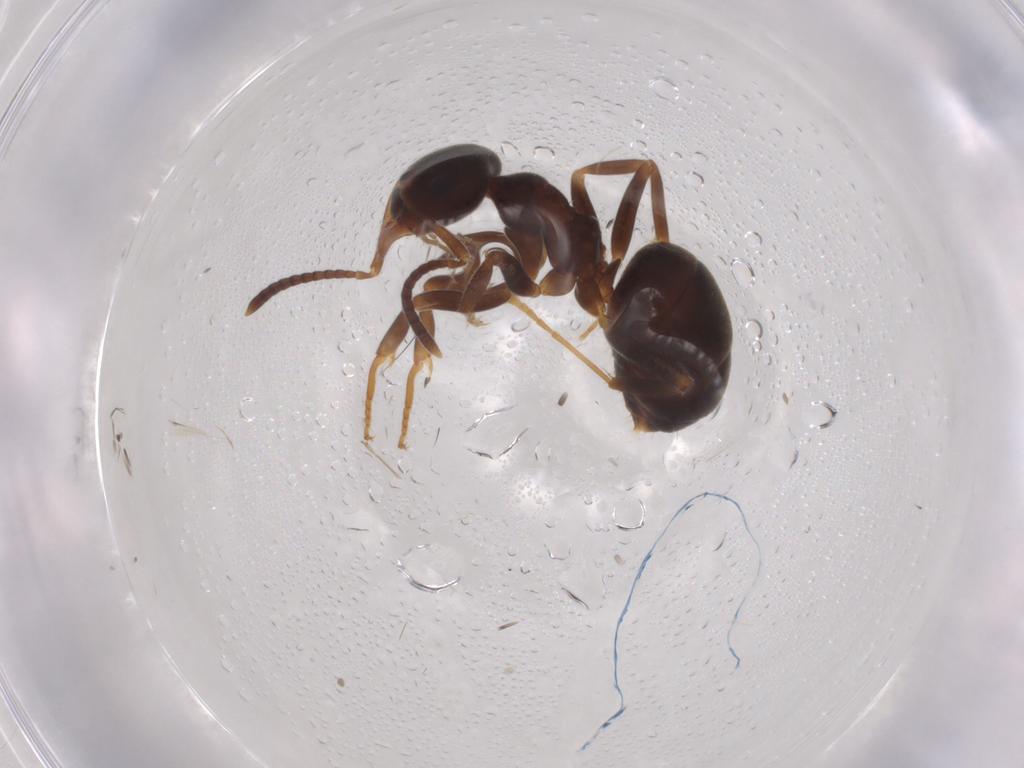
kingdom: Animalia
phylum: Arthropoda
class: Insecta
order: Hymenoptera
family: Formicidae
